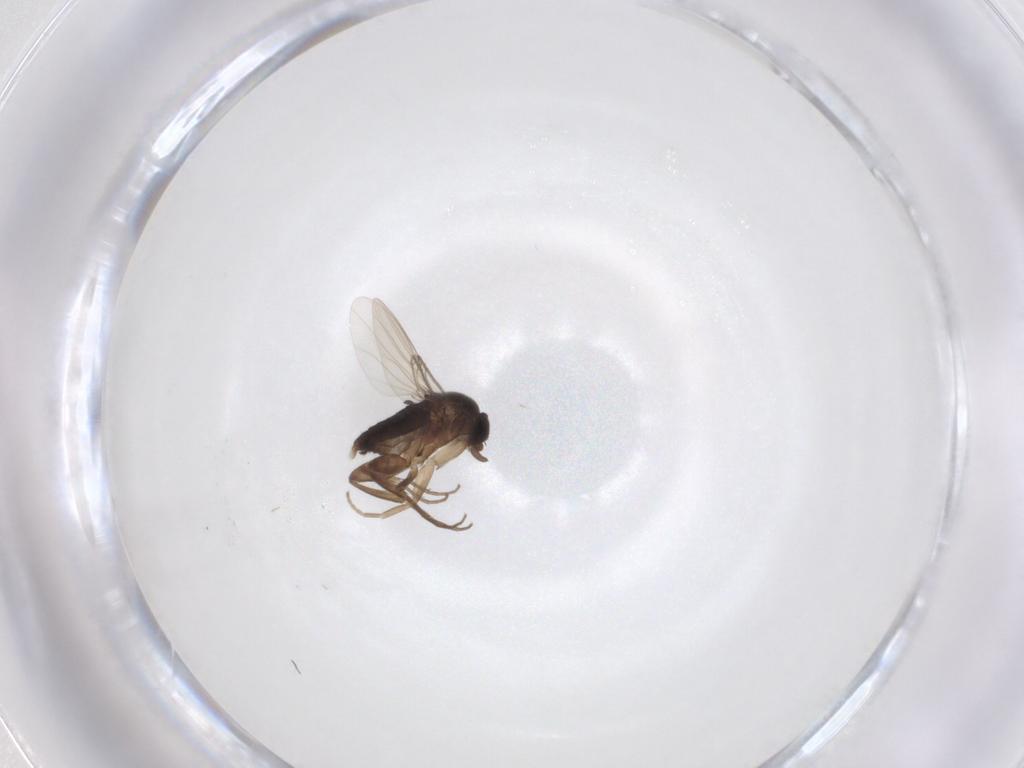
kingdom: Animalia
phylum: Arthropoda
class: Insecta
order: Diptera
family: Phoridae
